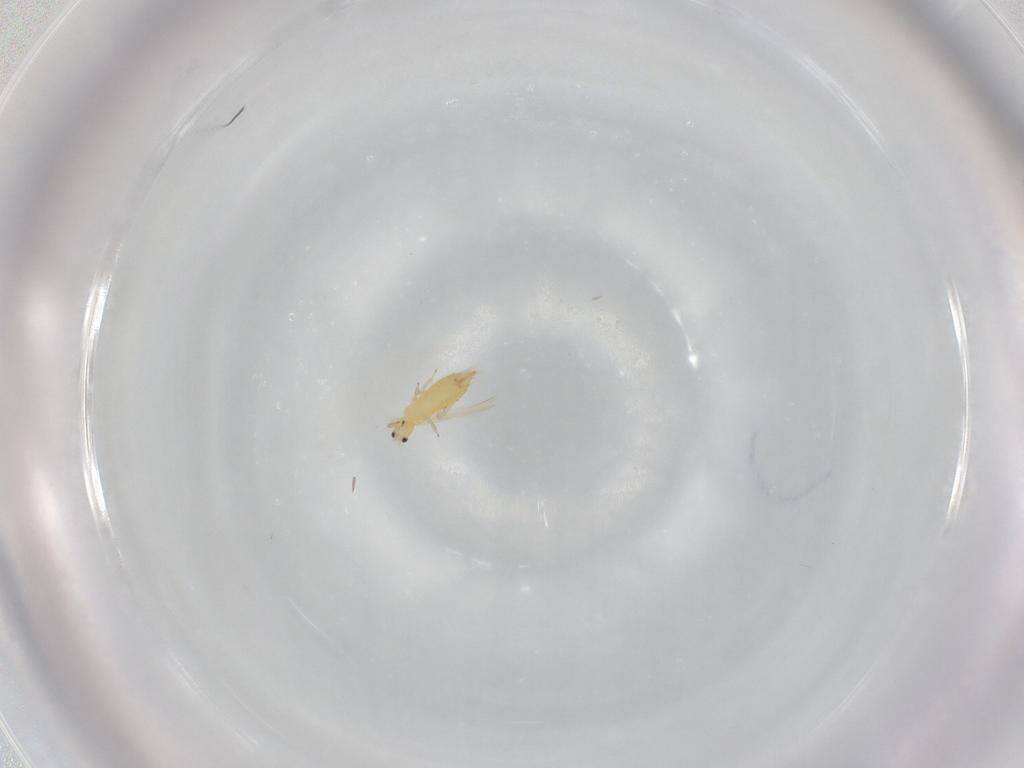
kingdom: Animalia
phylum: Arthropoda
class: Insecta
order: Thysanoptera
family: Thripidae
